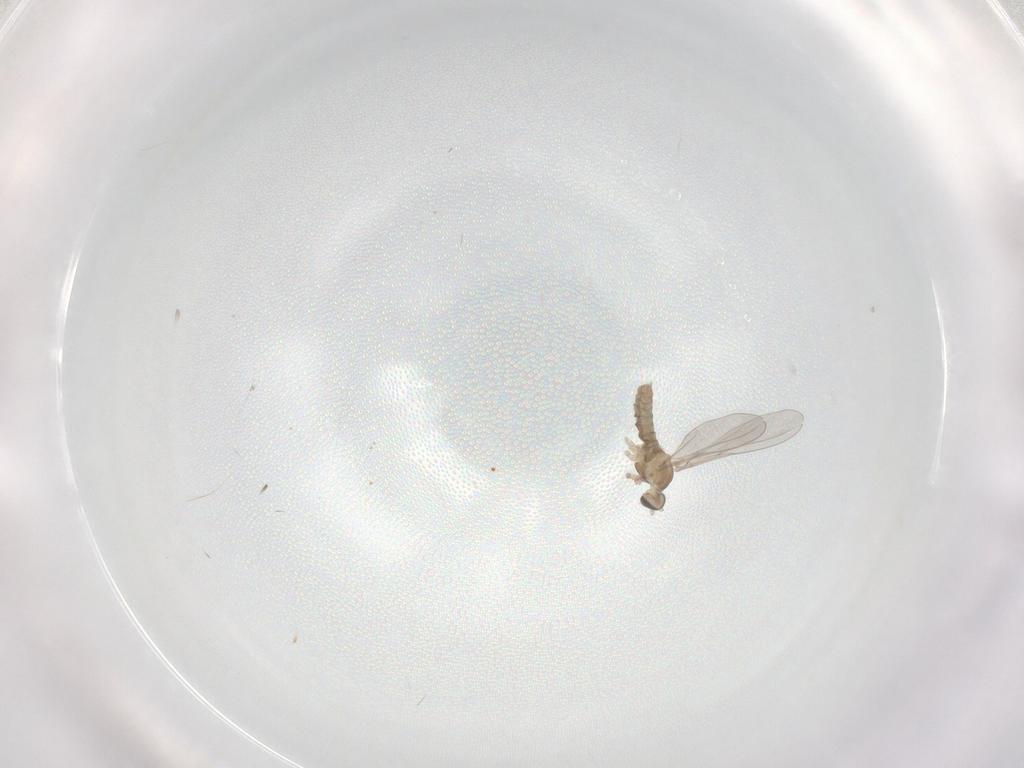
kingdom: Animalia
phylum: Arthropoda
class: Insecta
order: Diptera
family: Cecidomyiidae
